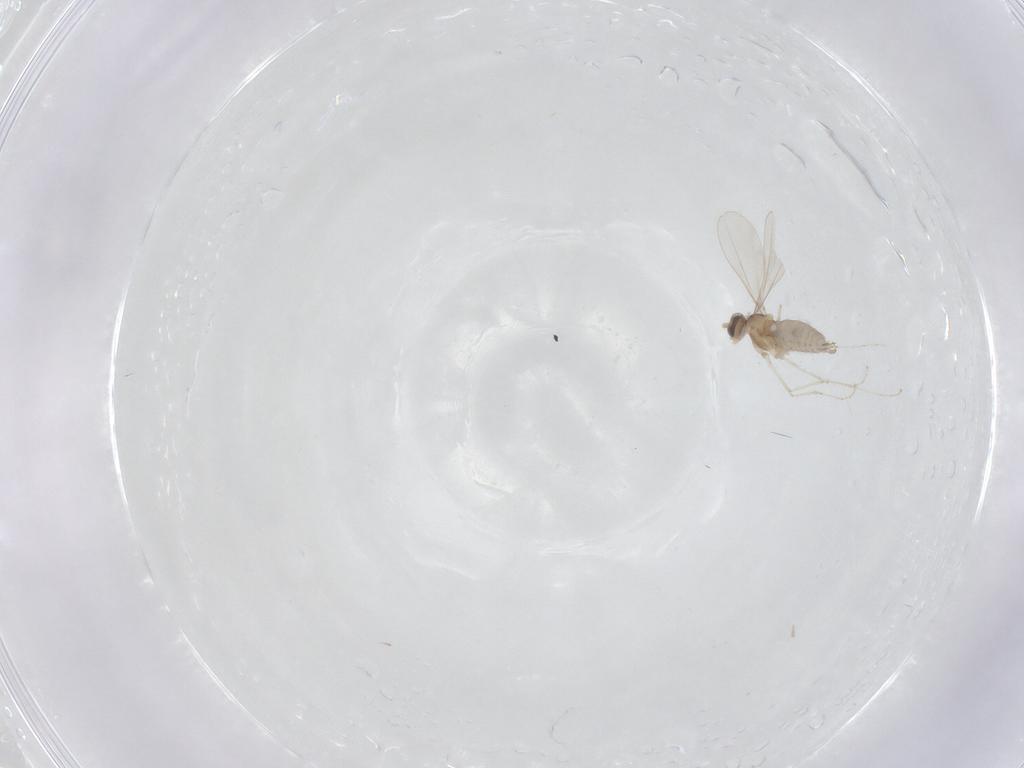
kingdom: Animalia
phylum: Arthropoda
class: Insecta
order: Diptera
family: Cecidomyiidae
